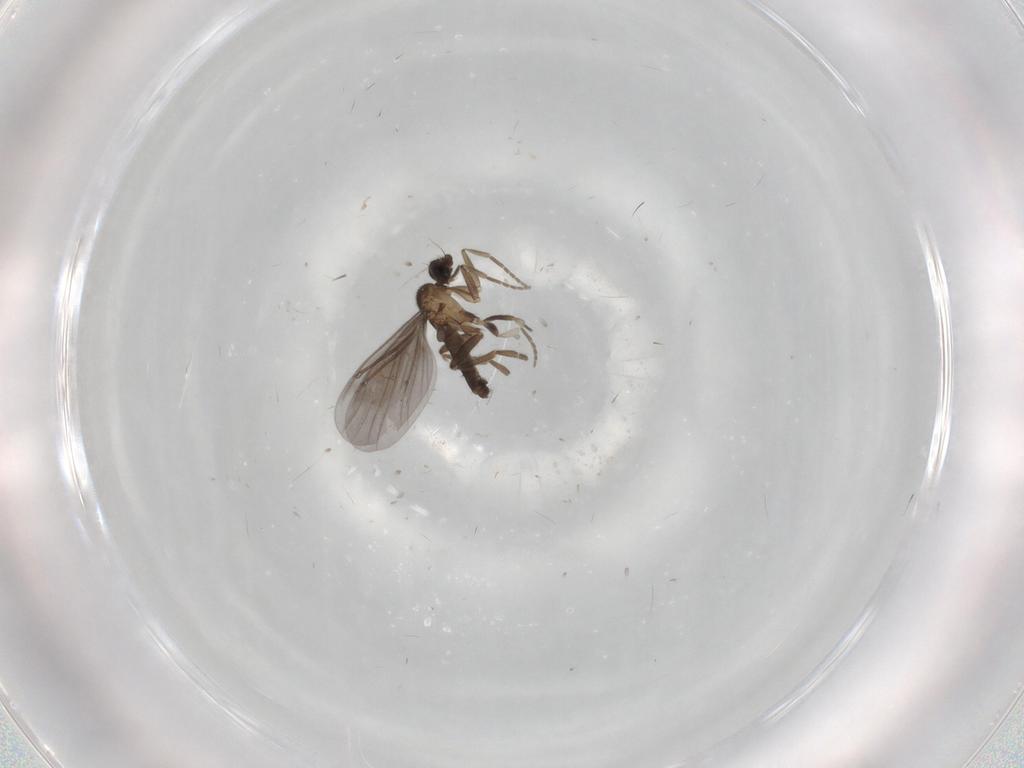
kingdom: Animalia
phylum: Arthropoda
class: Insecta
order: Diptera
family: Phoridae
